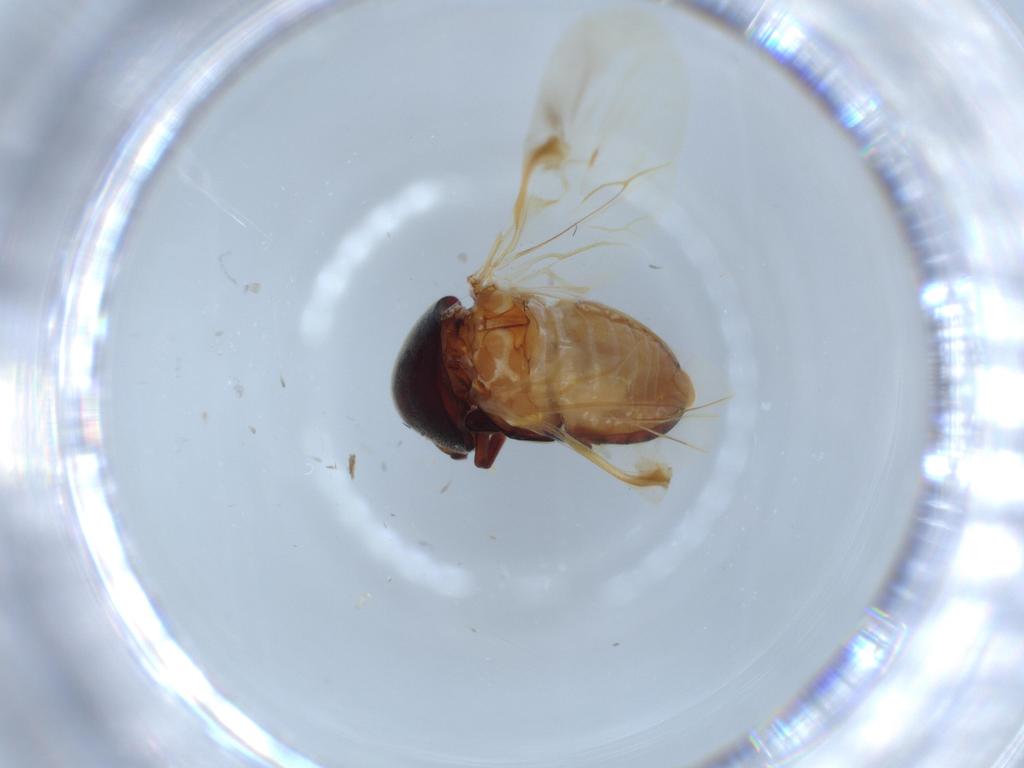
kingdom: Animalia
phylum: Arthropoda
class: Insecta
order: Coleoptera
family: Ptinidae
